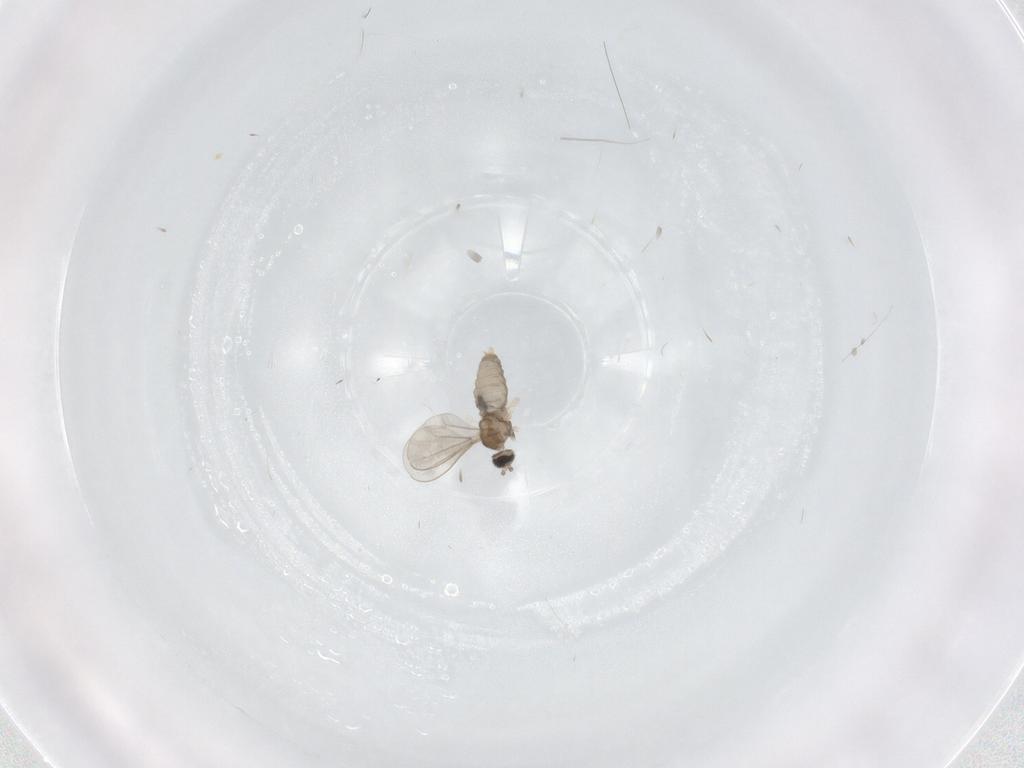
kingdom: Animalia
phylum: Arthropoda
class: Insecta
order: Diptera
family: Cecidomyiidae
